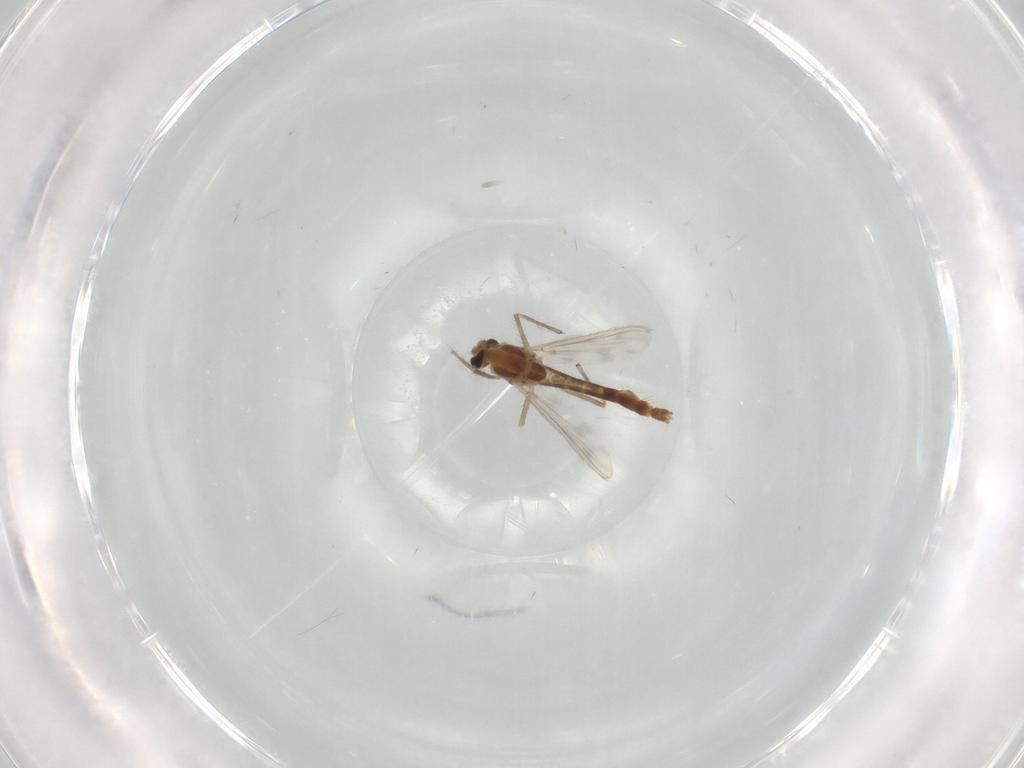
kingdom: Animalia
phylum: Arthropoda
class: Insecta
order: Diptera
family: Chironomidae
